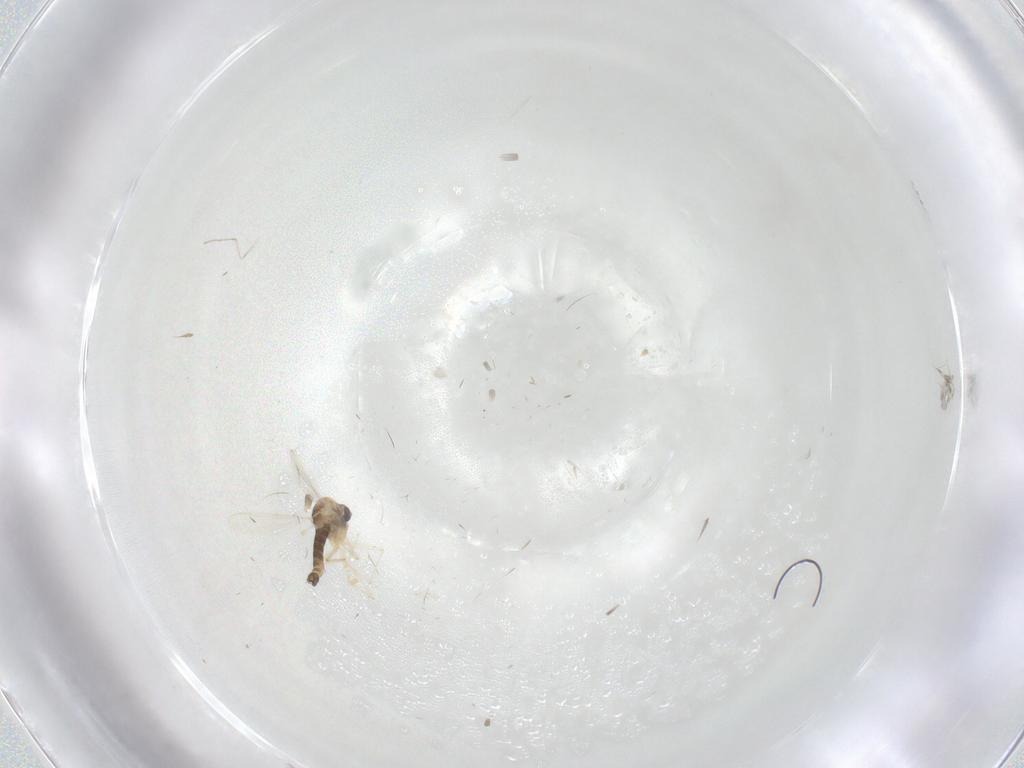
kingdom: Animalia
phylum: Arthropoda
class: Insecta
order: Diptera
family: Chironomidae
